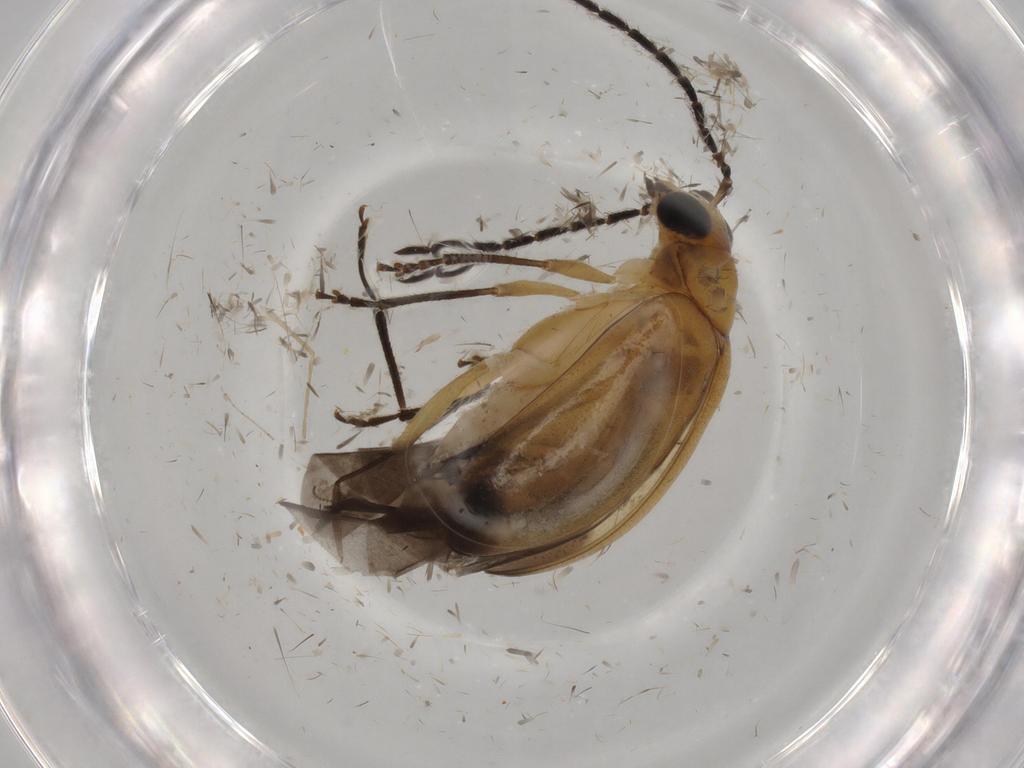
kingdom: Animalia
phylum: Arthropoda
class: Insecta
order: Coleoptera
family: Chrysomelidae
